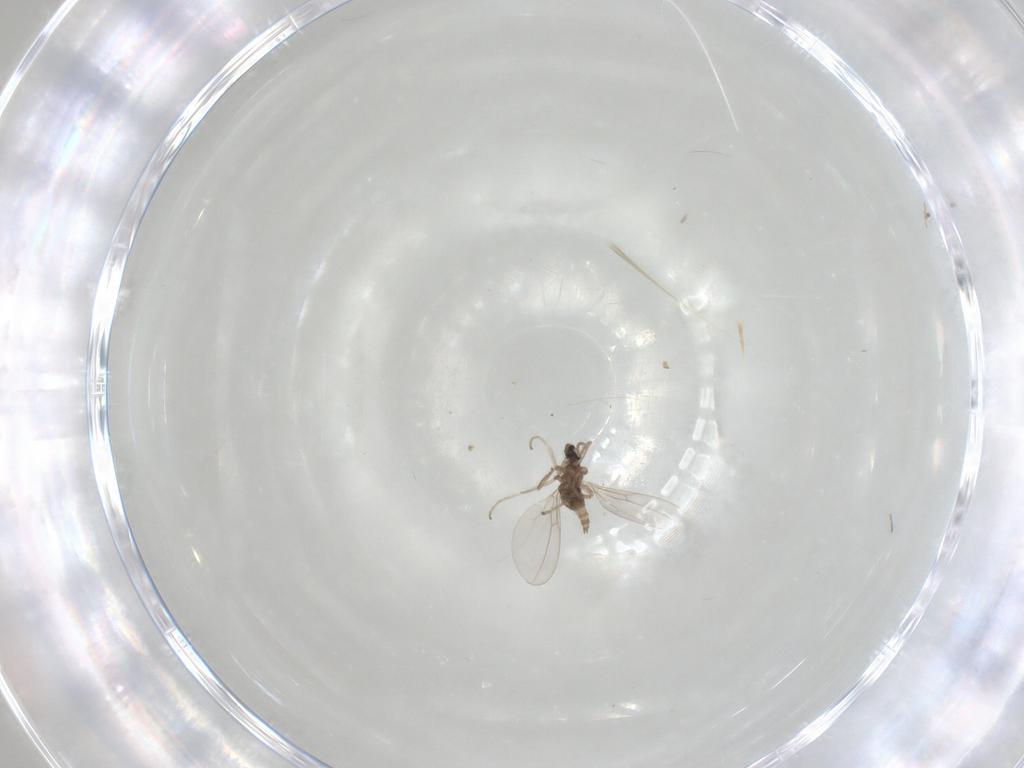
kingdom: Animalia
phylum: Arthropoda
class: Insecta
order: Diptera
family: Cecidomyiidae
